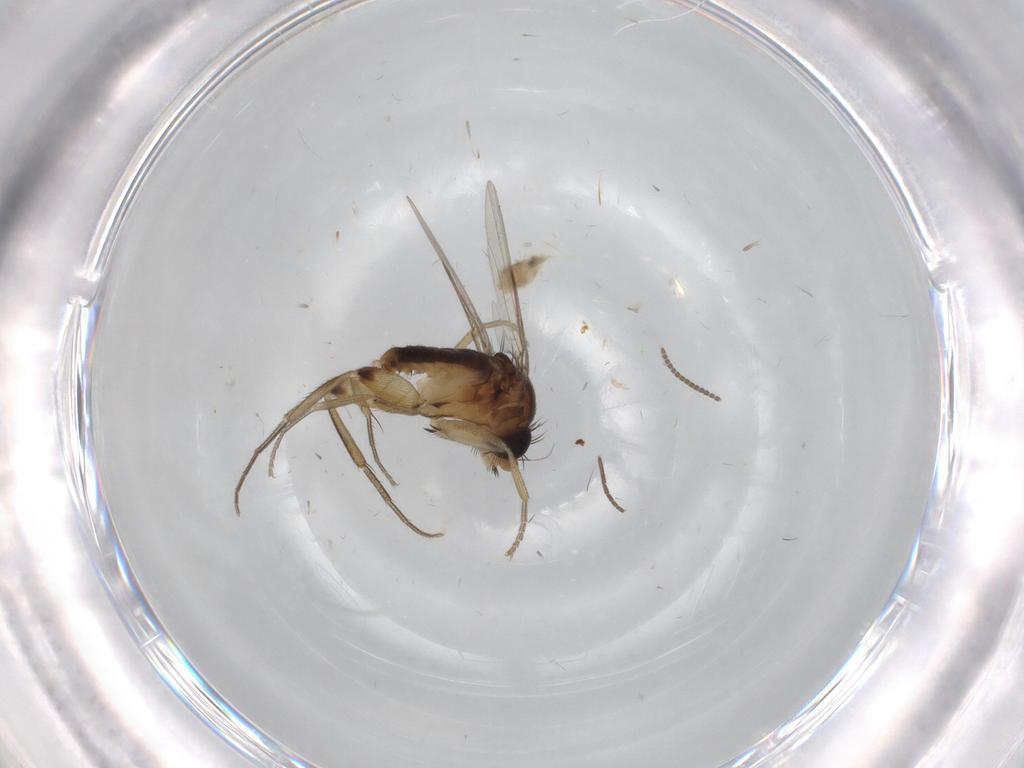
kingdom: Animalia
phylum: Arthropoda
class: Insecta
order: Diptera
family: Phoridae
